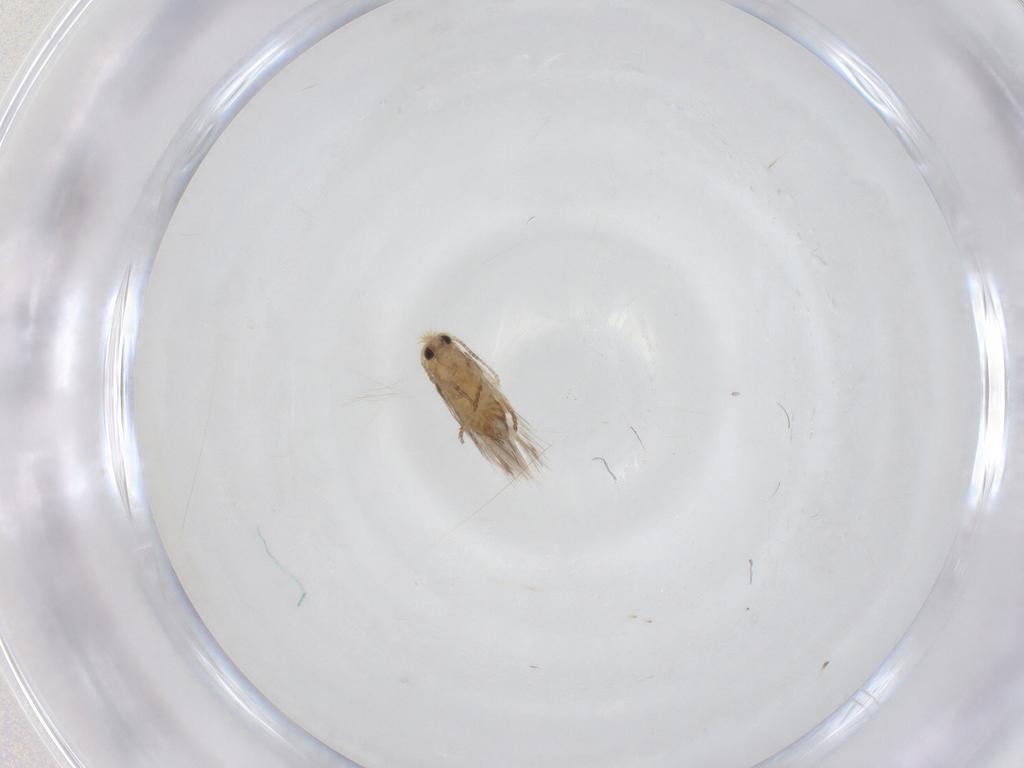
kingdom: Animalia
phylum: Arthropoda
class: Insecta
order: Lepidoptera
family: Nepticulidae
